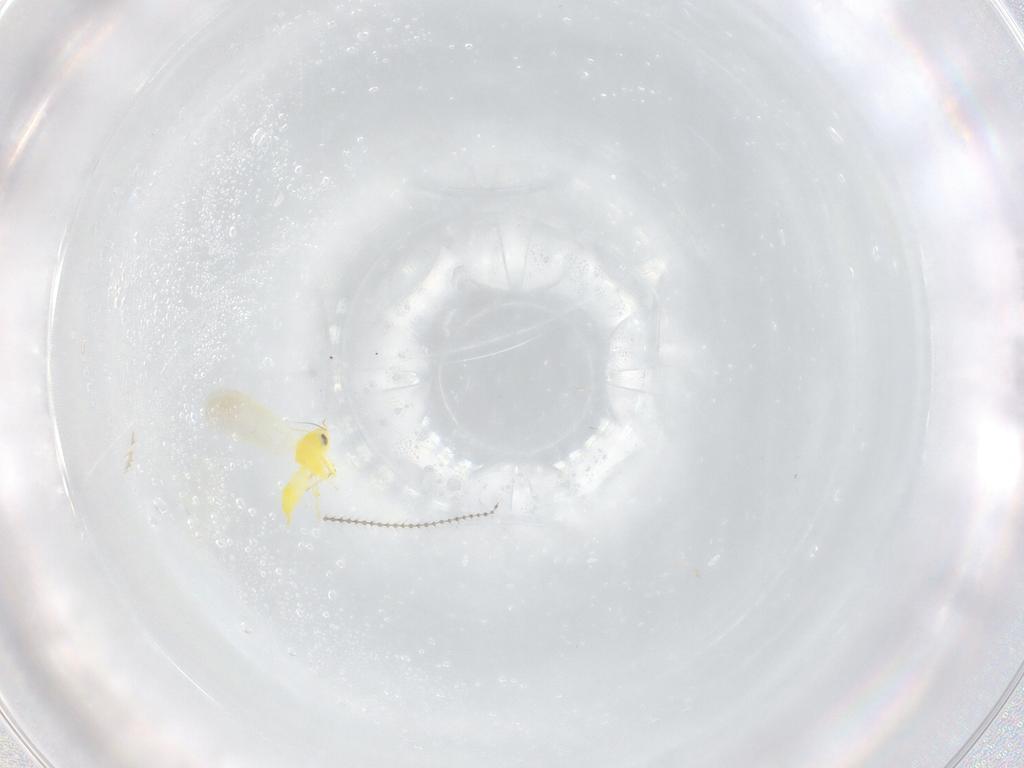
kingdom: Animalia
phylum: Arthropoda
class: Insecta
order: Hemiptera
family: Aleyrodidae
